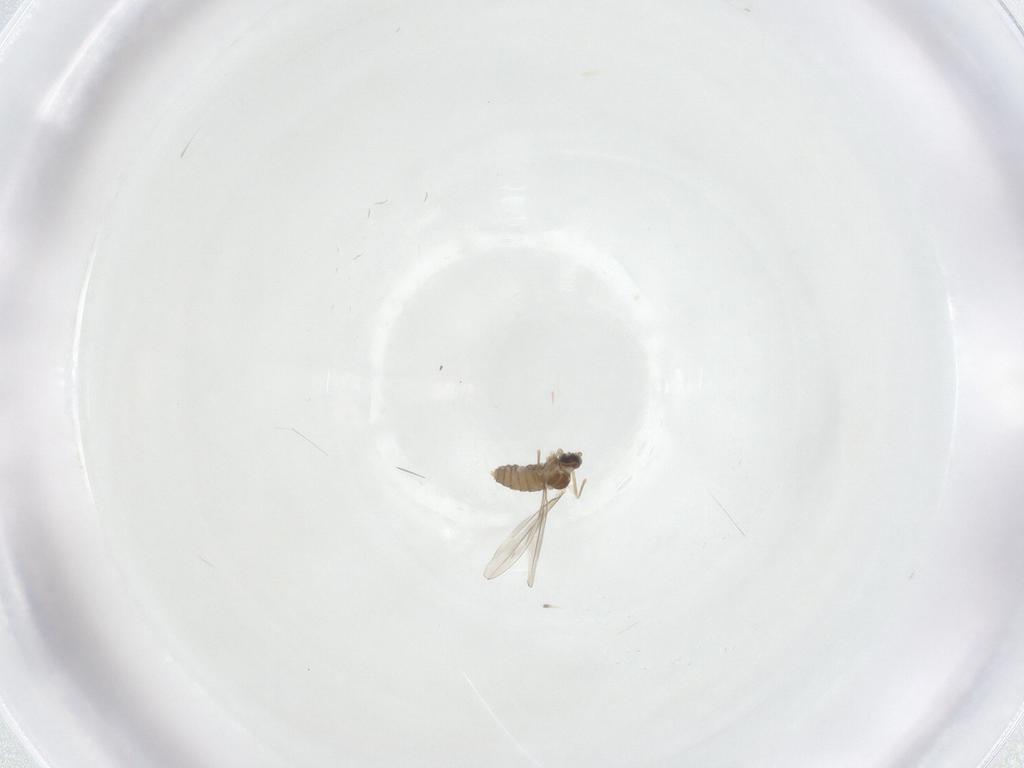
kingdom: Animalia
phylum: Arthropoda
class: Insecta
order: Diptera
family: Cecidomyiidae
